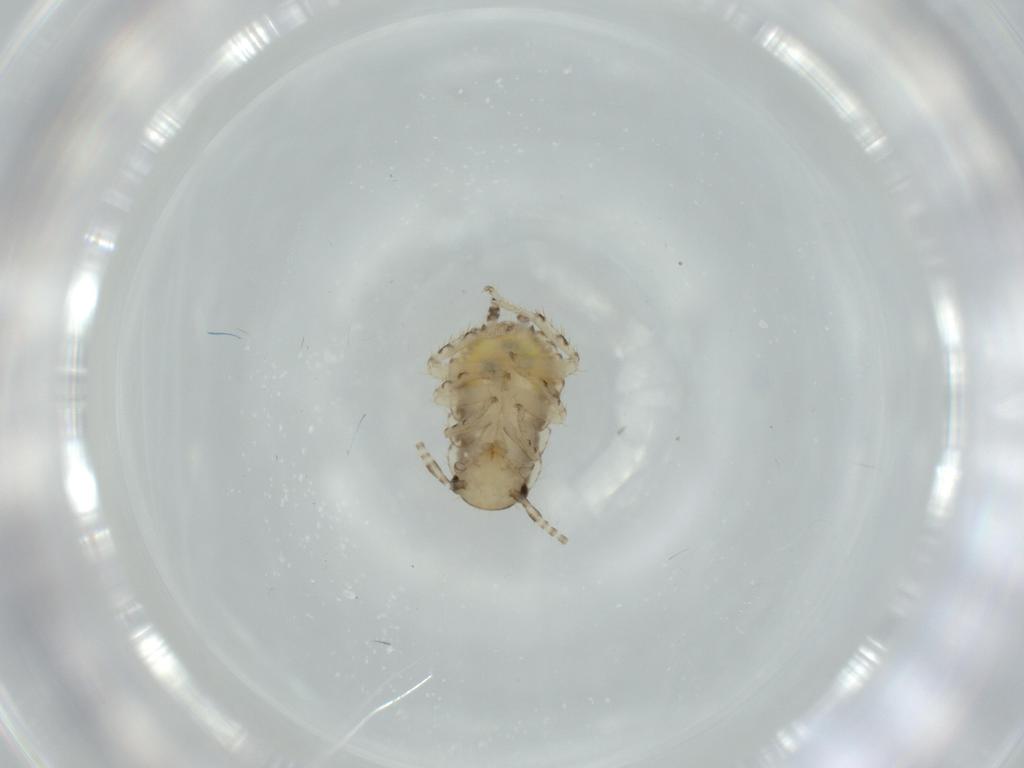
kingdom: Animalia
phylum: Arthropoda
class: Insecta
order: Blattodea
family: Ectobiidae
